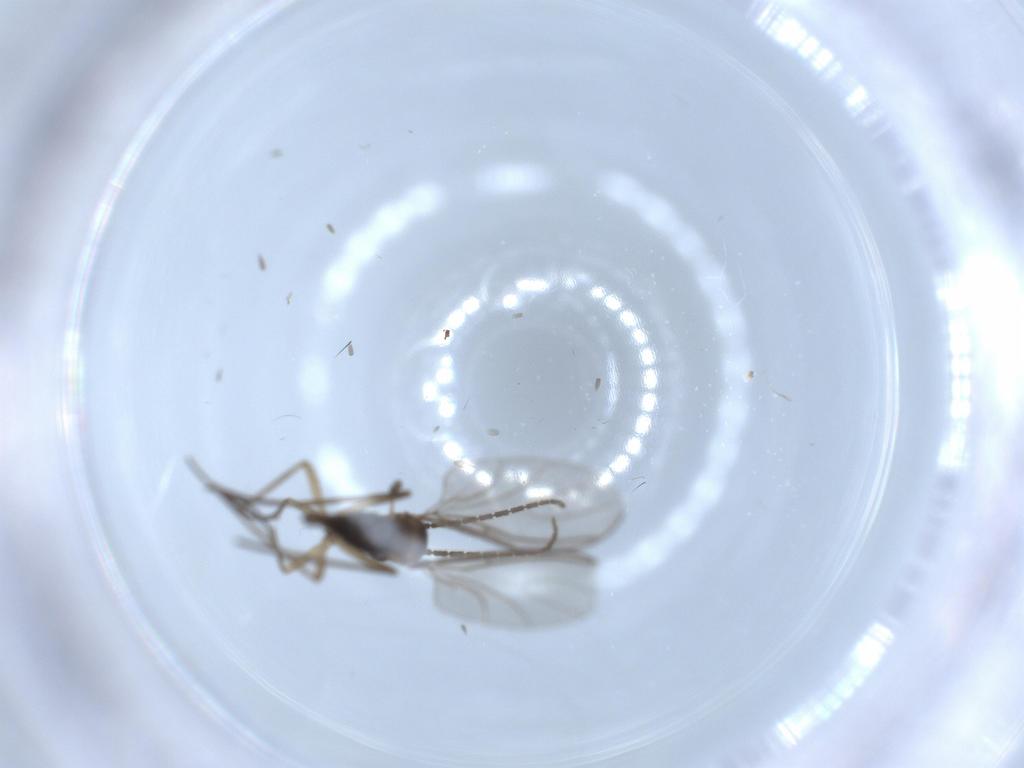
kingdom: Animalia
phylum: Arthropoda
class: Insecta
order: Diptera
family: Sciaridae
